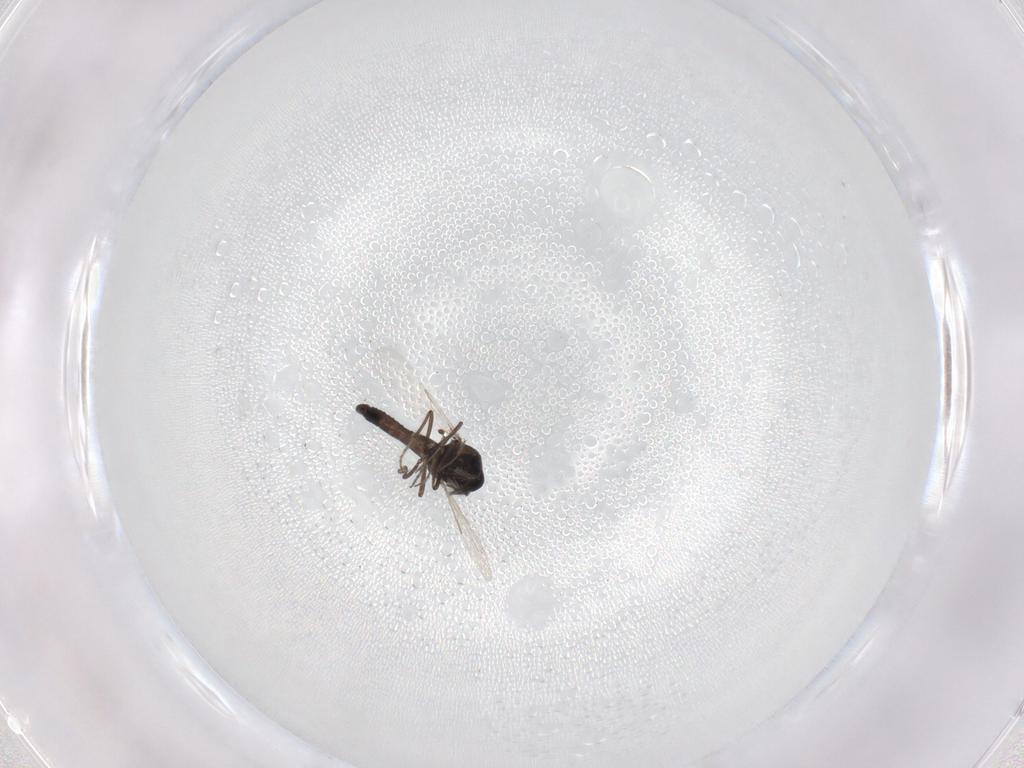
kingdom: Animalia
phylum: Arthropoda
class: Insecta
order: Diptera
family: Ceratopogonidae
